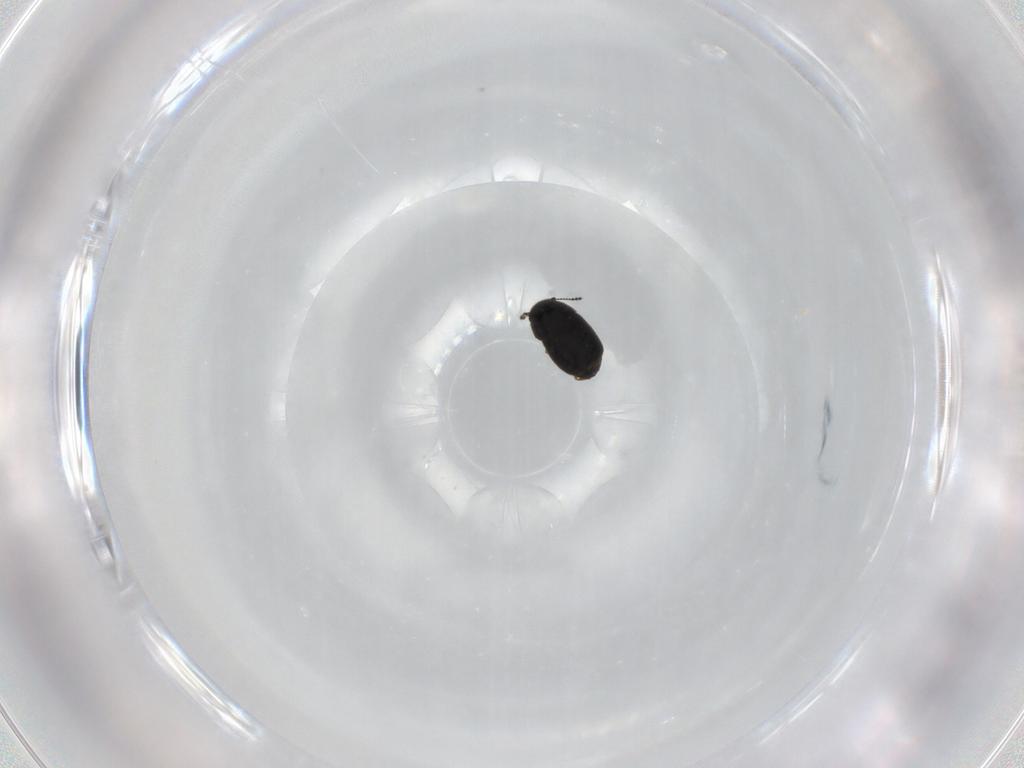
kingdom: Animalia
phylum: Arthropoda
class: Insecta
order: Coleoptera
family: Ptiliidae
